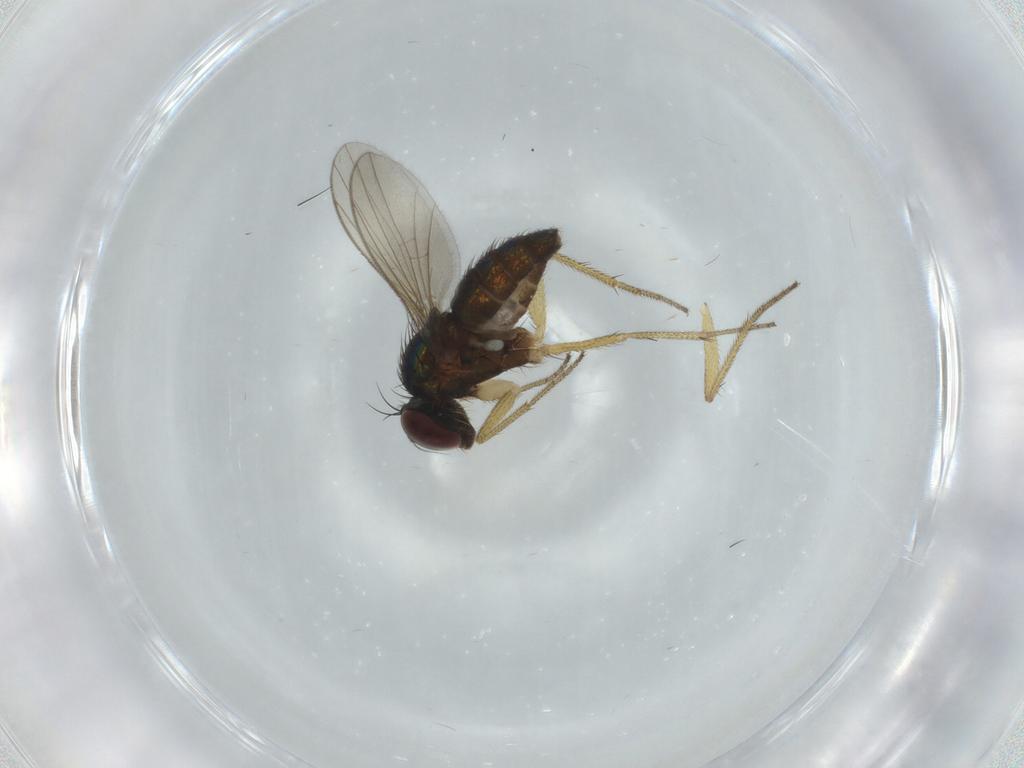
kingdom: Animalia
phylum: Arthropoda
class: Insecta
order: Diptera
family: Dolichopodidae
